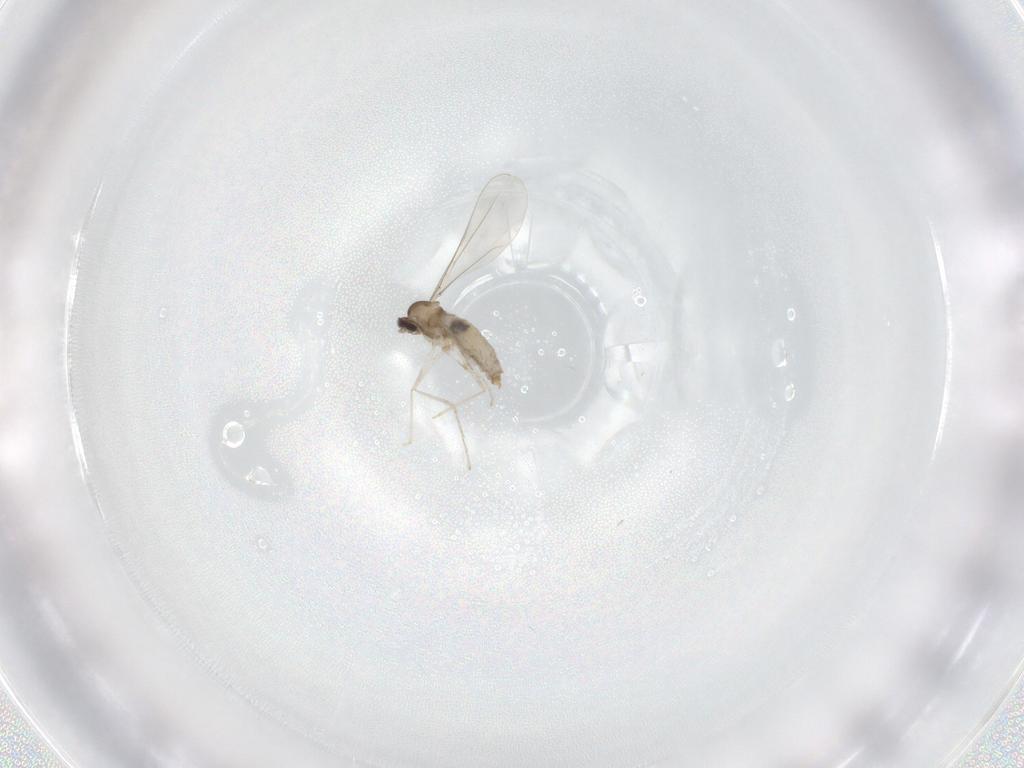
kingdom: Animalia
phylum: Arthropoda
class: Insecta
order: Diptera
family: Cecidomyiidae
